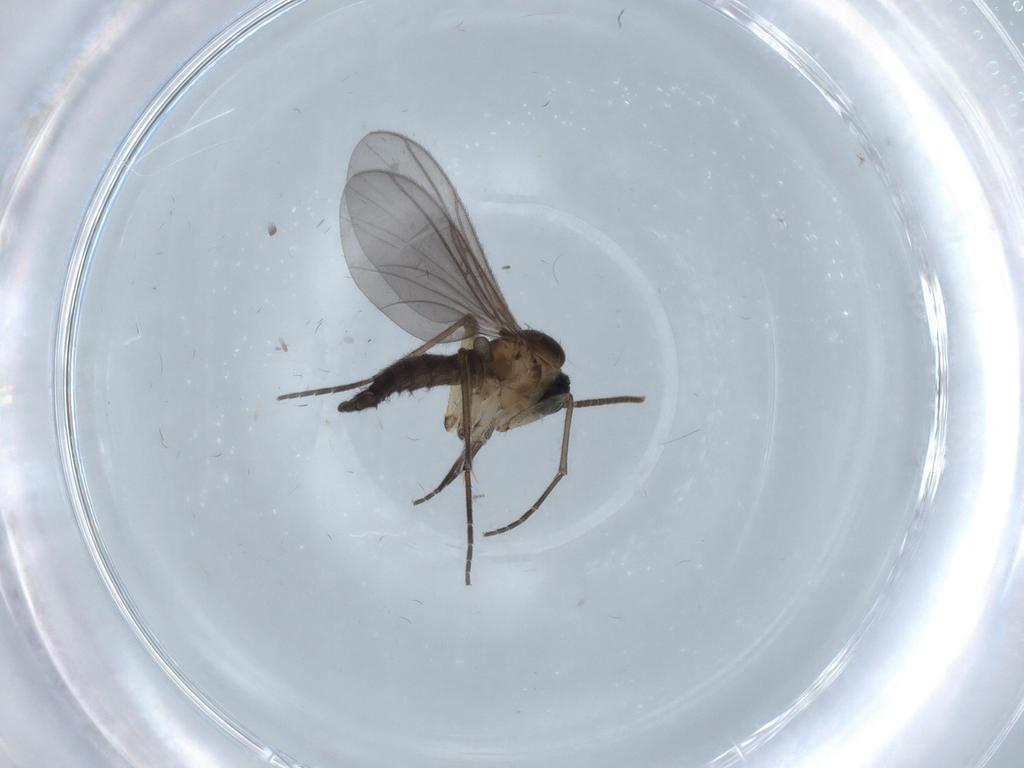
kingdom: Animalia
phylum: Arthropoda
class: Insecta
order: Diptera
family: Cecidomyiidae
